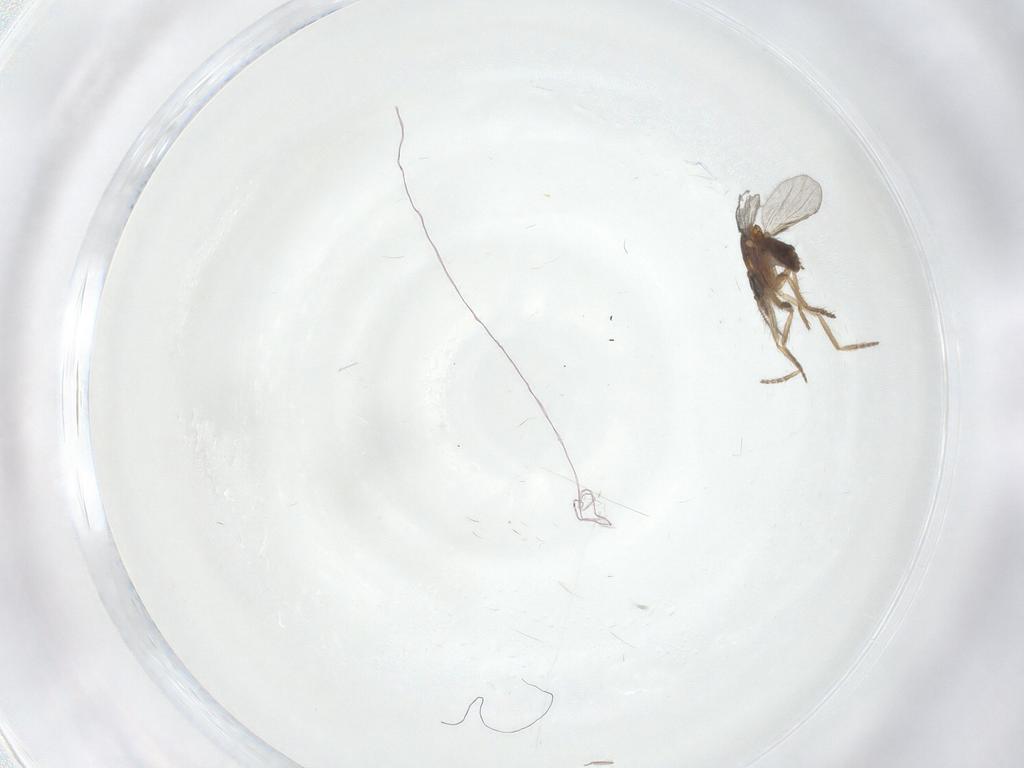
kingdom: Animalia
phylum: Arthropoda
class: Insecta
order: Diptera
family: Psychodidae
